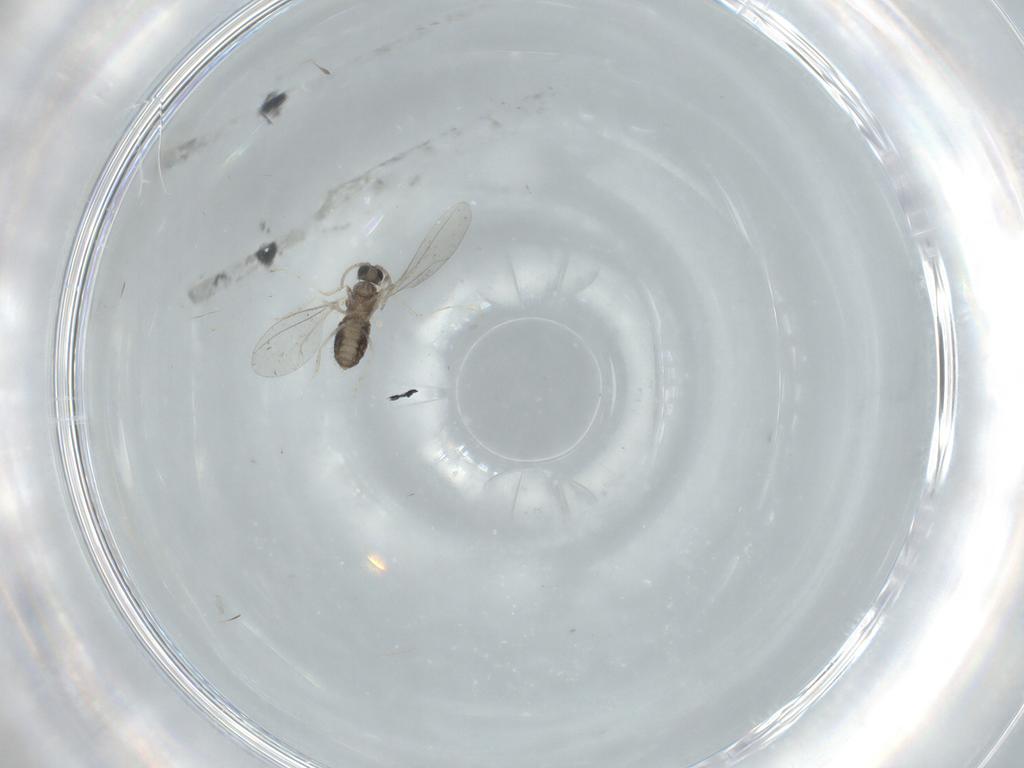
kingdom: Animalia
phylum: Arthropoda
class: Insecta
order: Diptera
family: Cecidomyiidae
